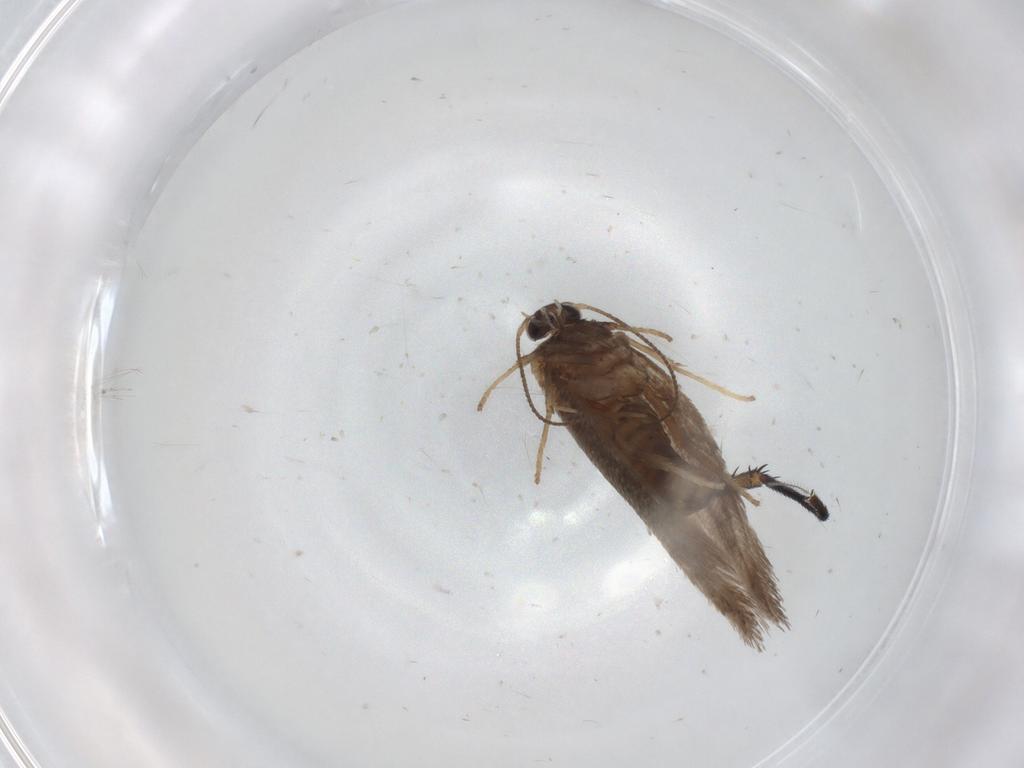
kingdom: Animalia
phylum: Arthropoda
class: Insecta
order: Lepidoptera
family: Nepticulidae
